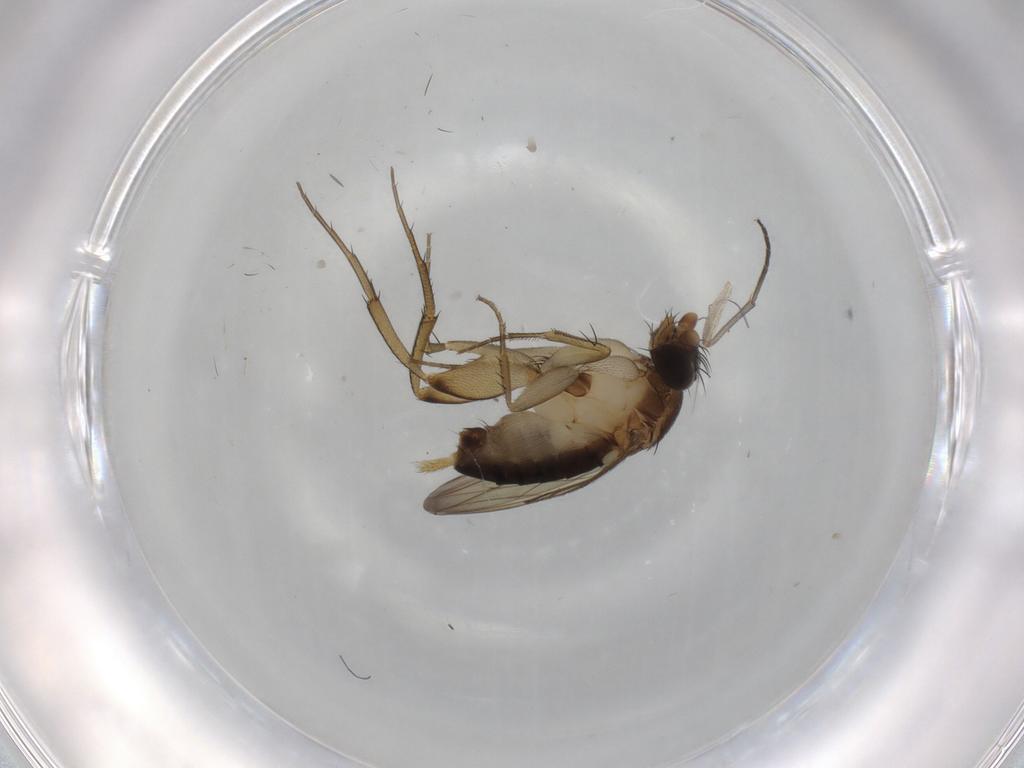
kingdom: Animalia
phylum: Arthropoda
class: Insecta
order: Diptera
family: Phoridae
